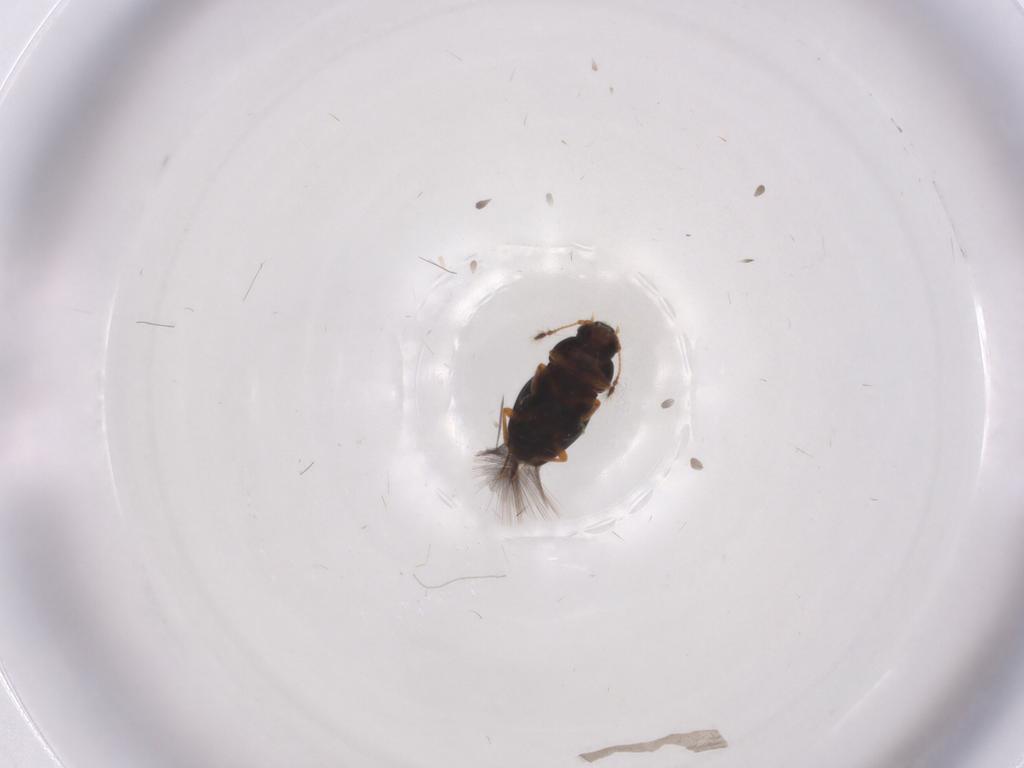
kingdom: Animalia
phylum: Arthropoda
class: Insecta
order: Coleoptera
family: Ptiliidae
